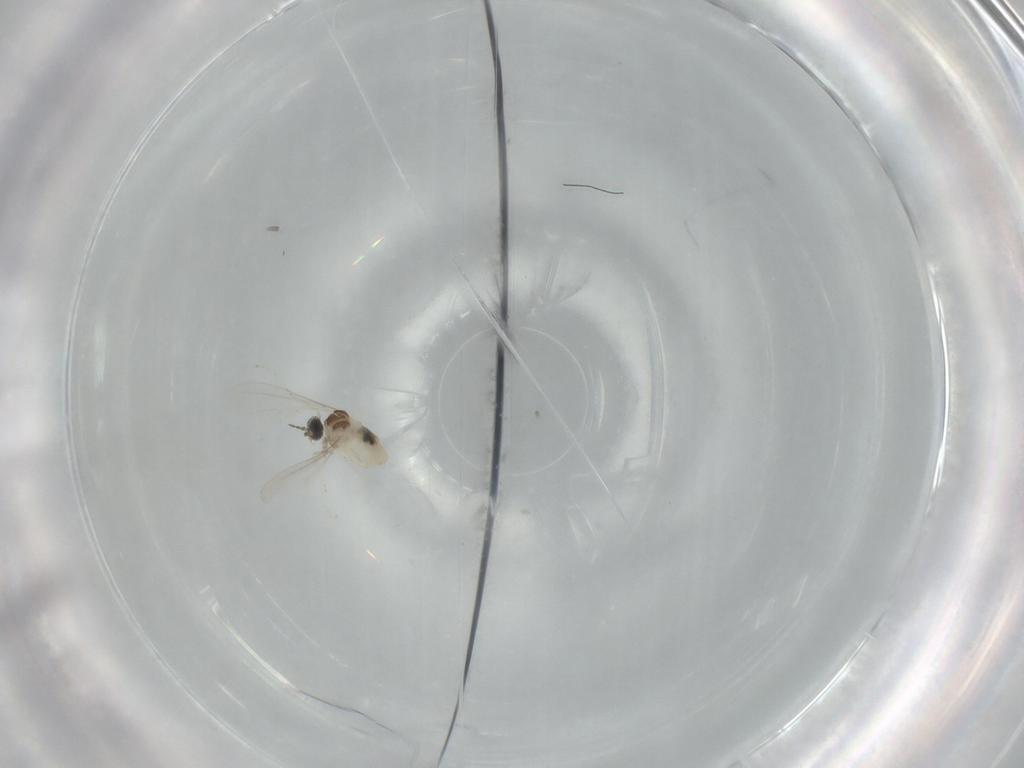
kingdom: Animalia
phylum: Arthropoda
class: Insecta
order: Diptera
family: Cecidomyiidae
